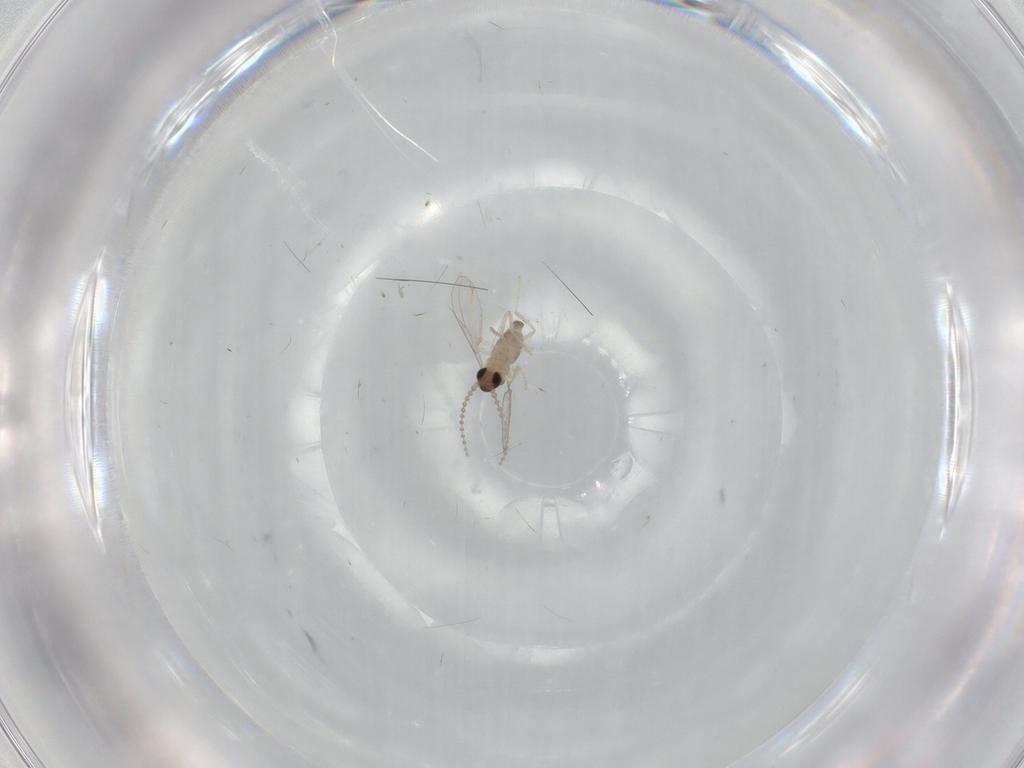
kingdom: Animalia
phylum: Arthropoda
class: Insecta
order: Diptera
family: Cecidomyiidae
